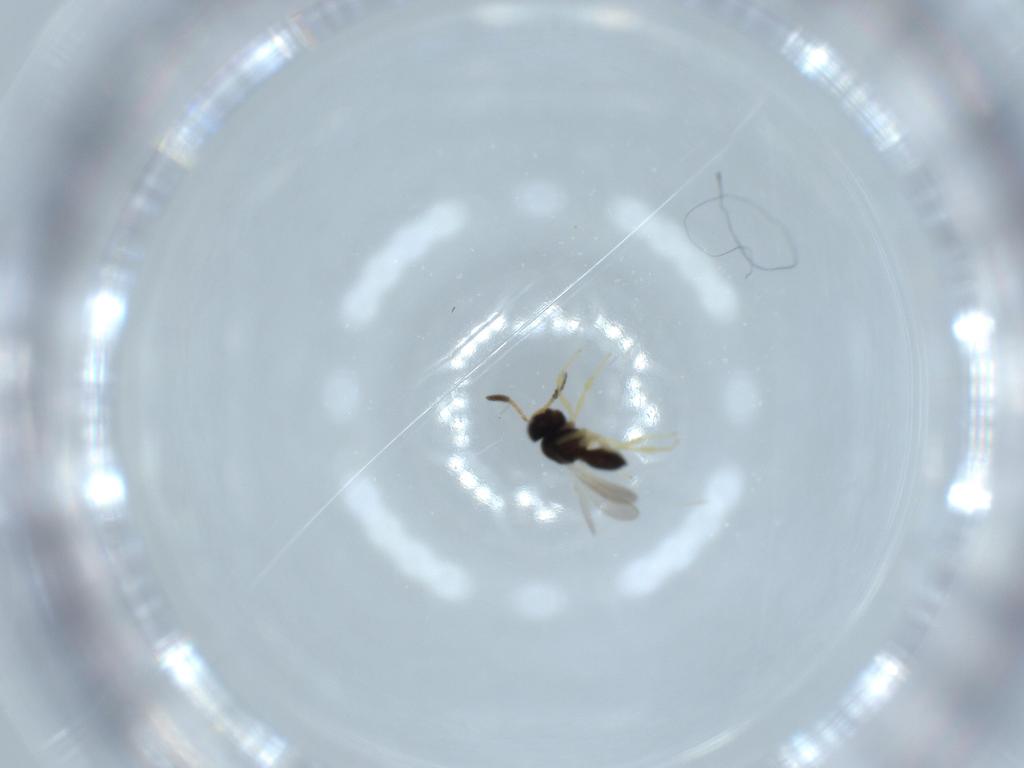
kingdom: Animalia
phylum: Arthropoda
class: Insecta
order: Hymenoptera
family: Scelionidae
